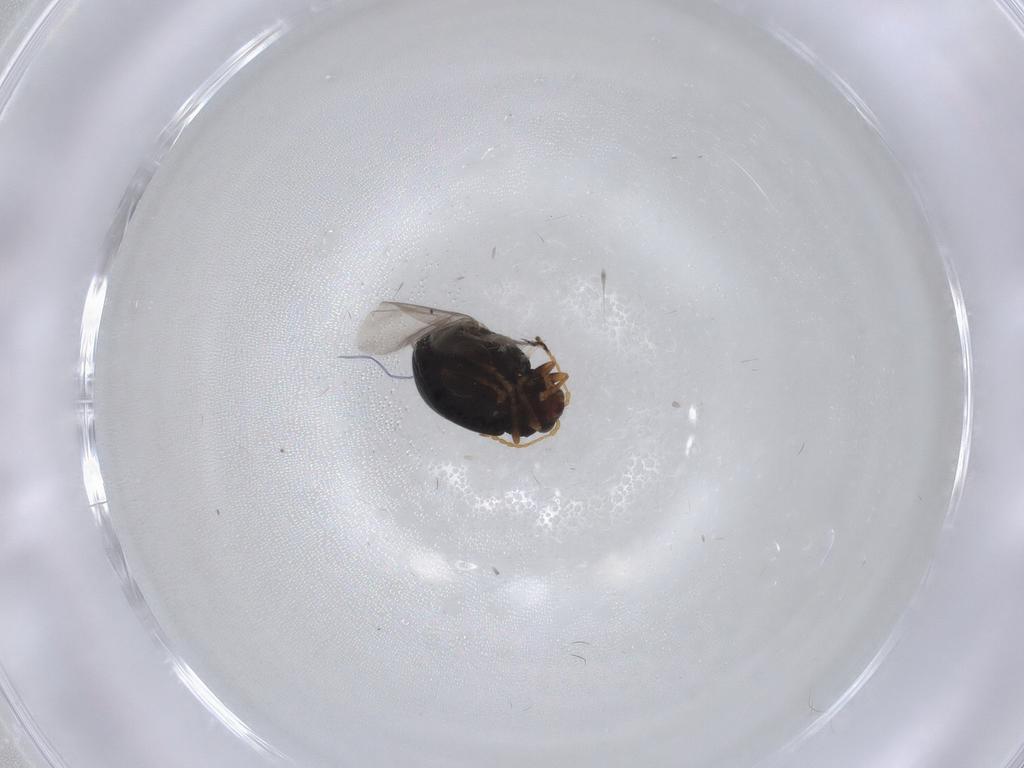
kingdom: Animalia
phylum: Arthropoda
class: Insecta
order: Coleoptera
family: Chrysomelidae
